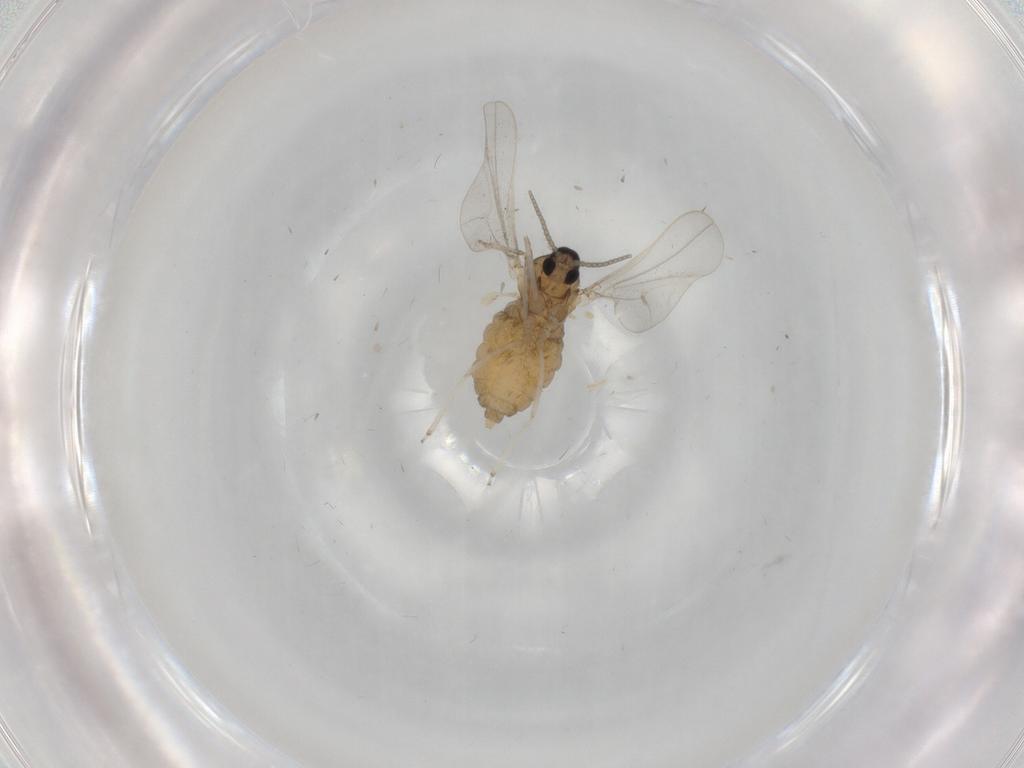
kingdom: Animalia
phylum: Arthropoda
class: Insecta
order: Diptera
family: Cecidomyiidae
